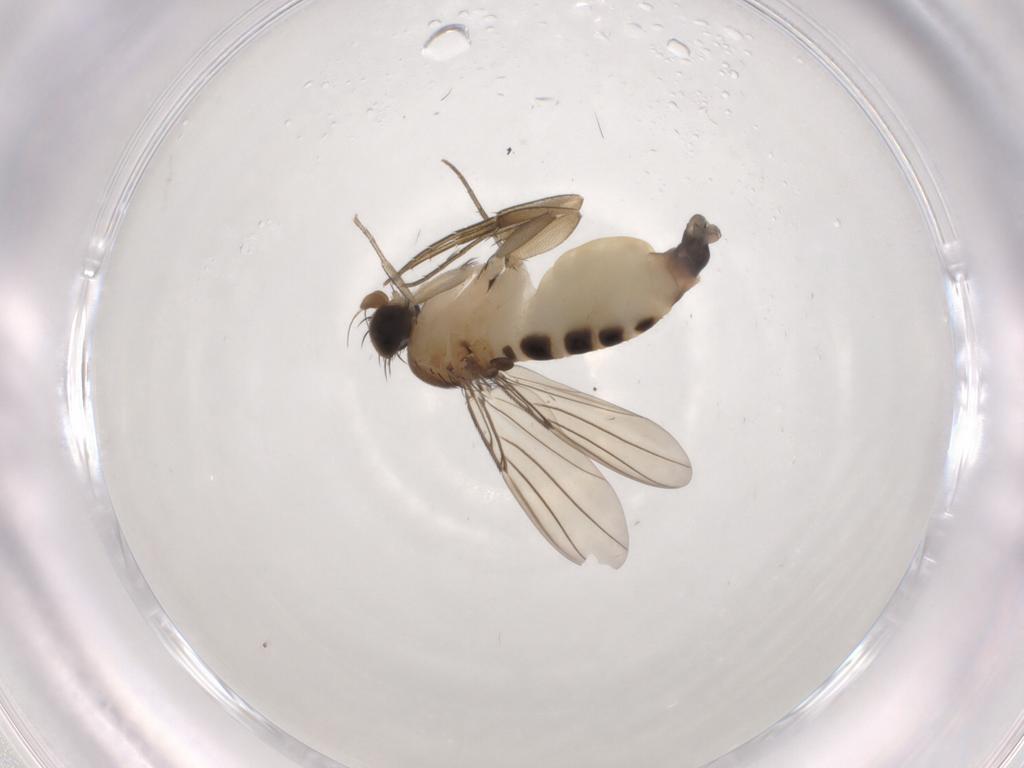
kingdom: Animalia
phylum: Arthropoda
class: Insecta
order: Diptera
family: Phoridae
